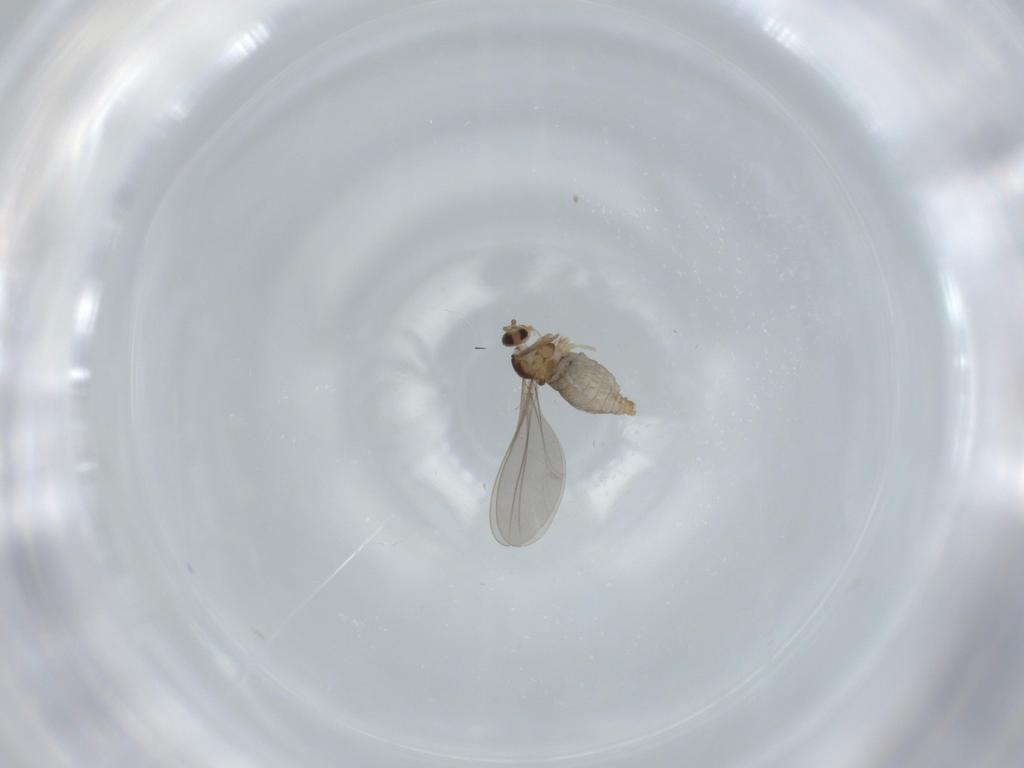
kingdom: Animalia
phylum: Arthropoda
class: Insecta
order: Diptera
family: Cecidomyiidae
